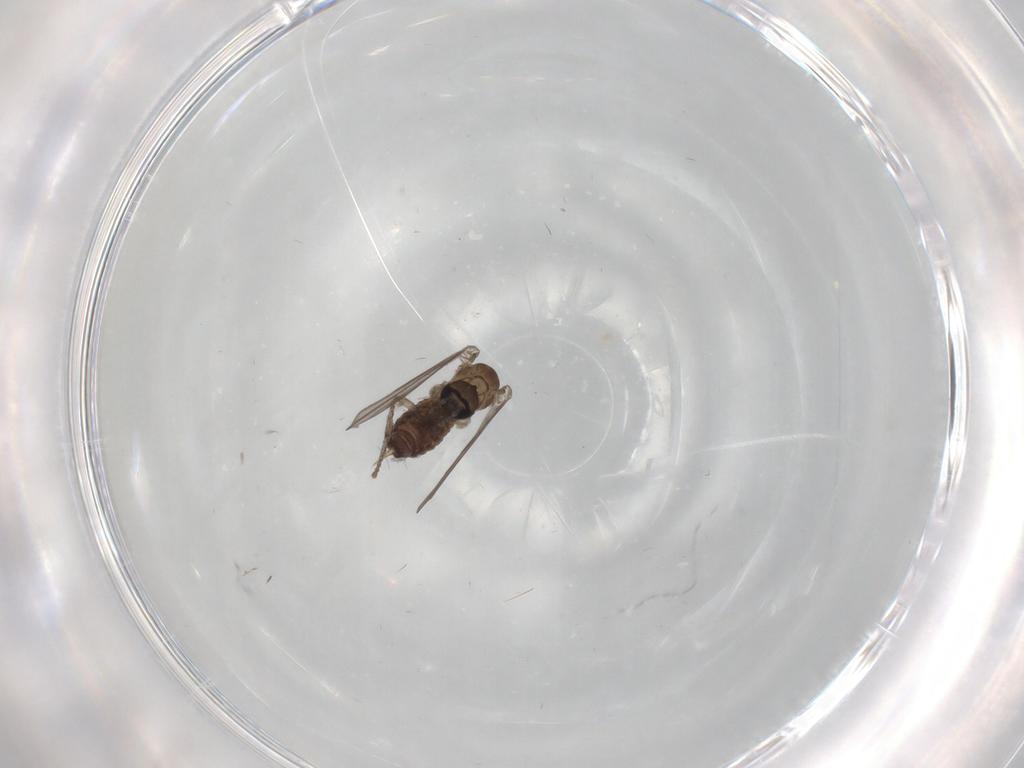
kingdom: Animalia
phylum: Arthropoda
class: Insecta
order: Diptera
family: Psychodidae
